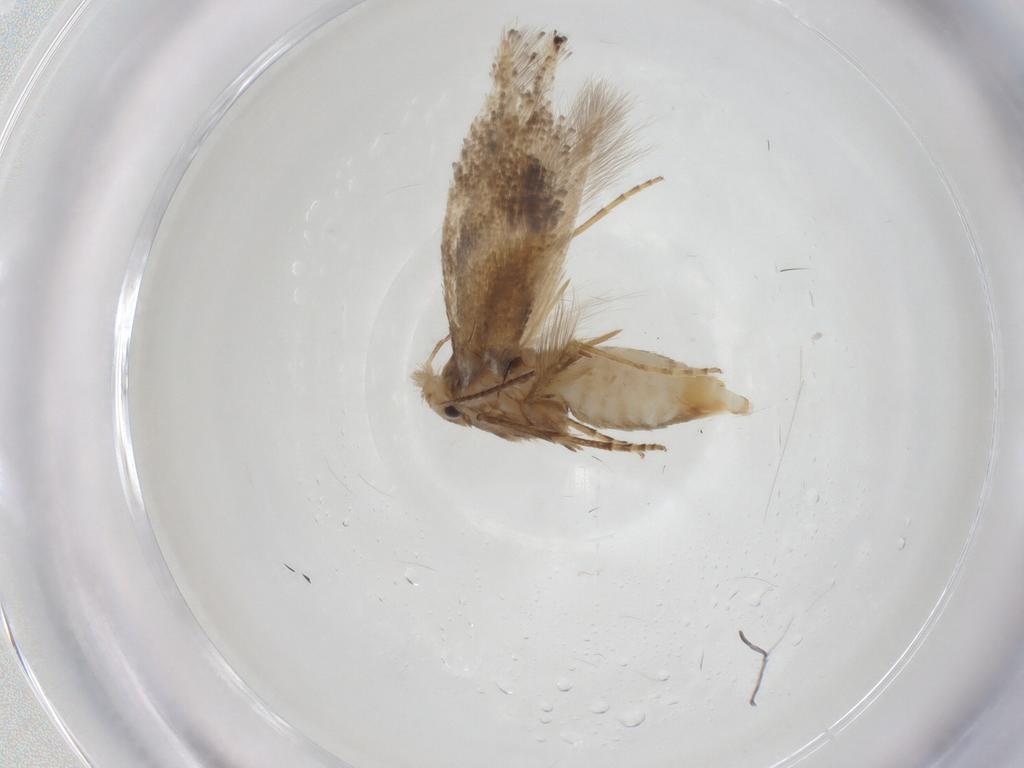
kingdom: Animalia
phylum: Arthropoda
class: Insecta
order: Lepidoptera
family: Bucculatricidae
